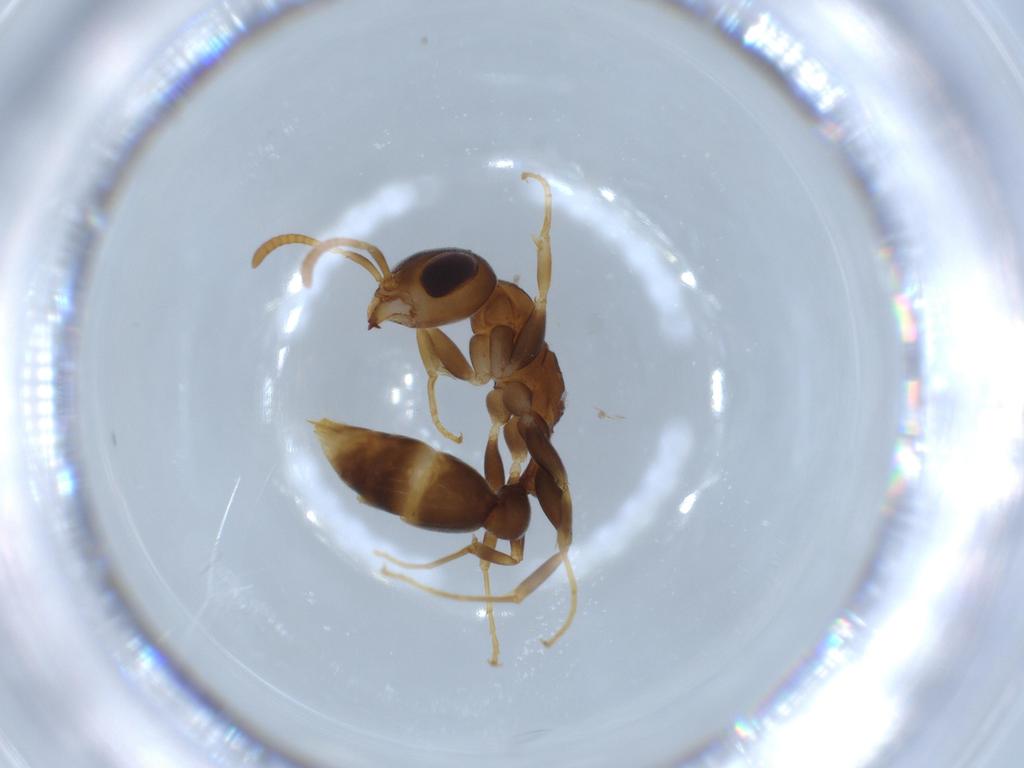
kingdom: Animalia
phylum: Arthropoda
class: Insecta
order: Hymenoptera
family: Formicidae
